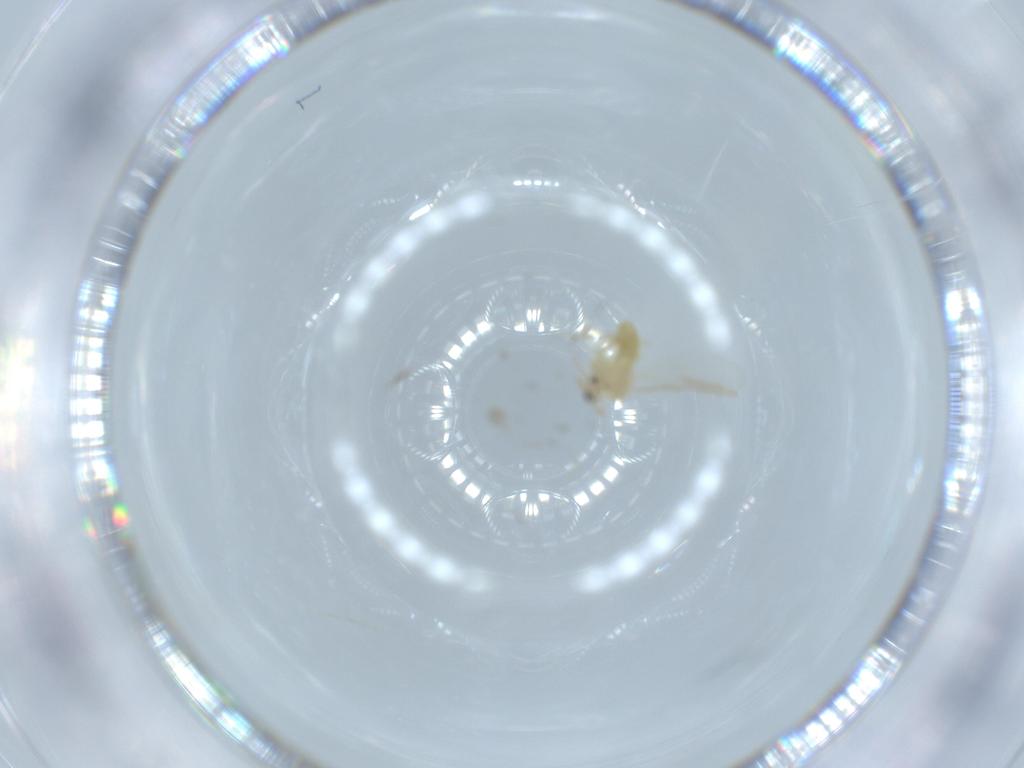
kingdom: Animalia
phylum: Arthropoda
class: Insecta
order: Diptera
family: Chironomidae
